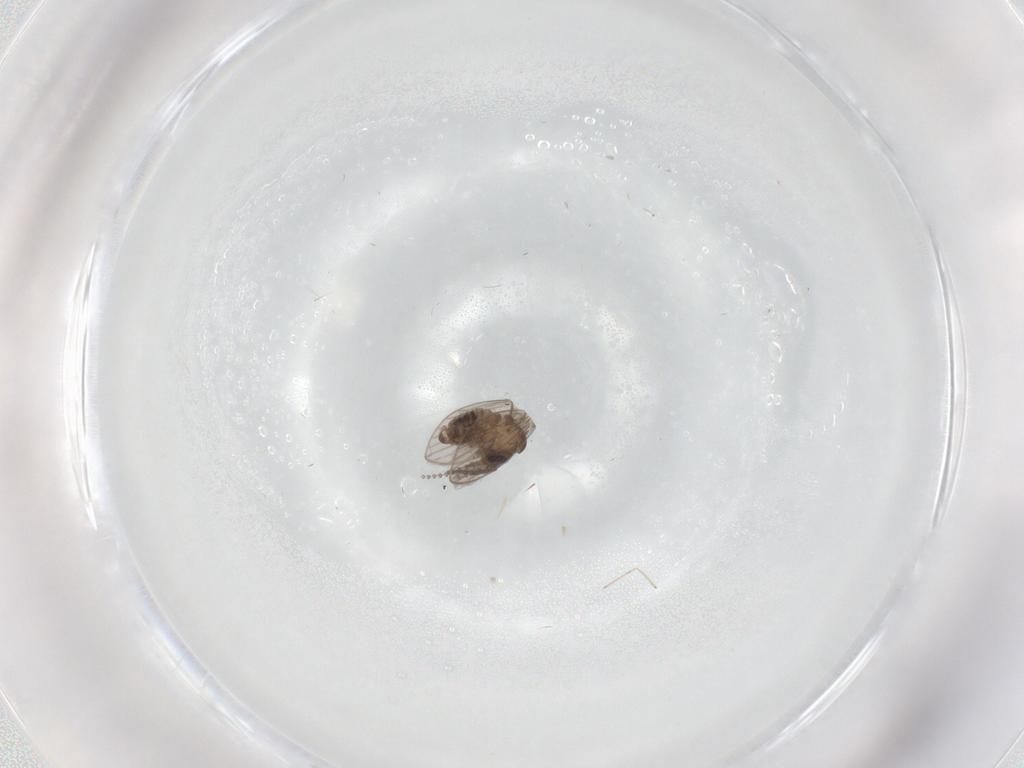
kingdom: Animalia
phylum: Arthropoda
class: Insecta
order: Diptera
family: Psychodidae
